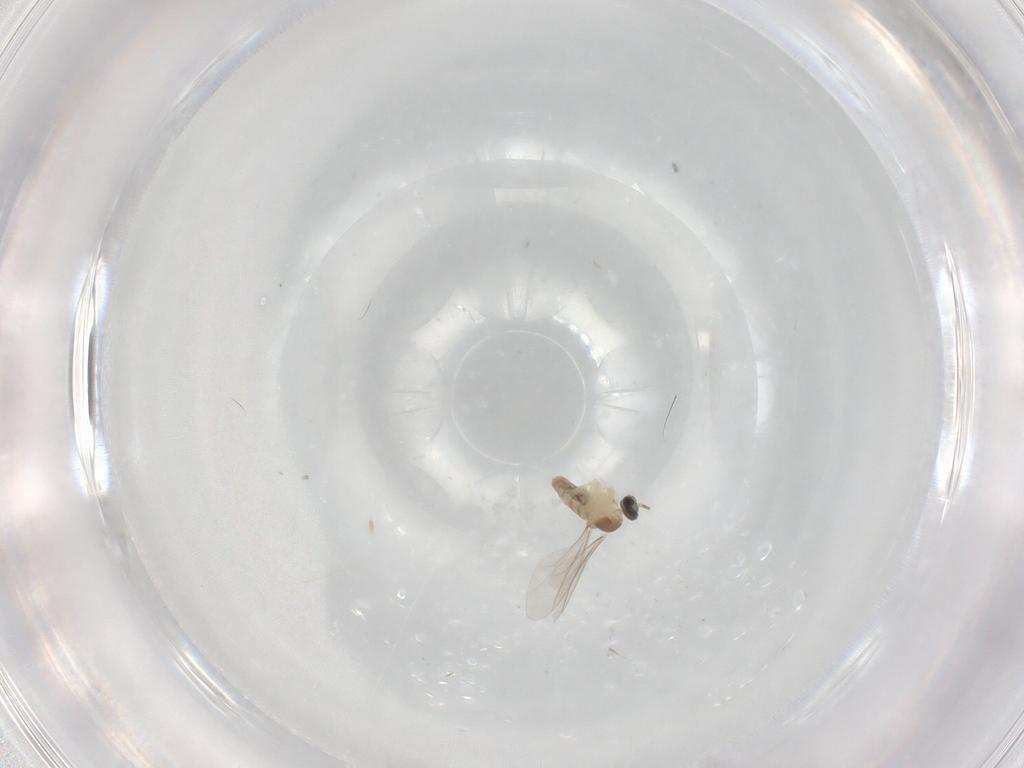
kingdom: Animalia
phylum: Arthropoda
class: Insecta
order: Diptera
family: Cecidomyiidae
